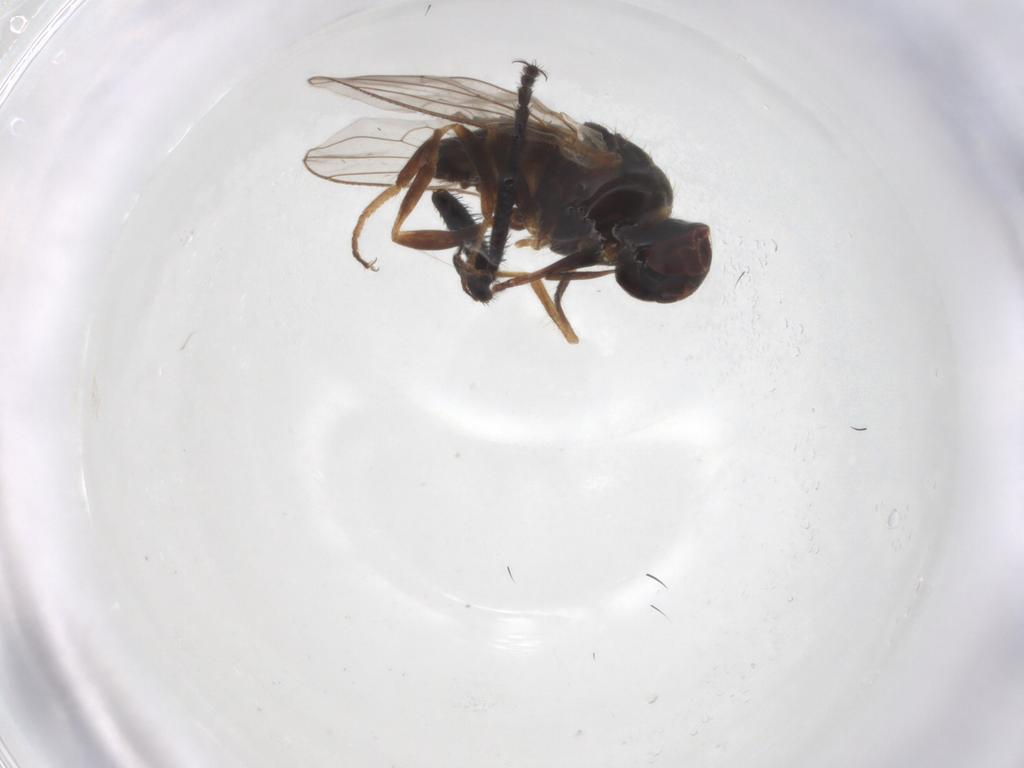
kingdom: Animalia
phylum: Arthropoda
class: Insecta
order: Diptera
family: Muscidae
